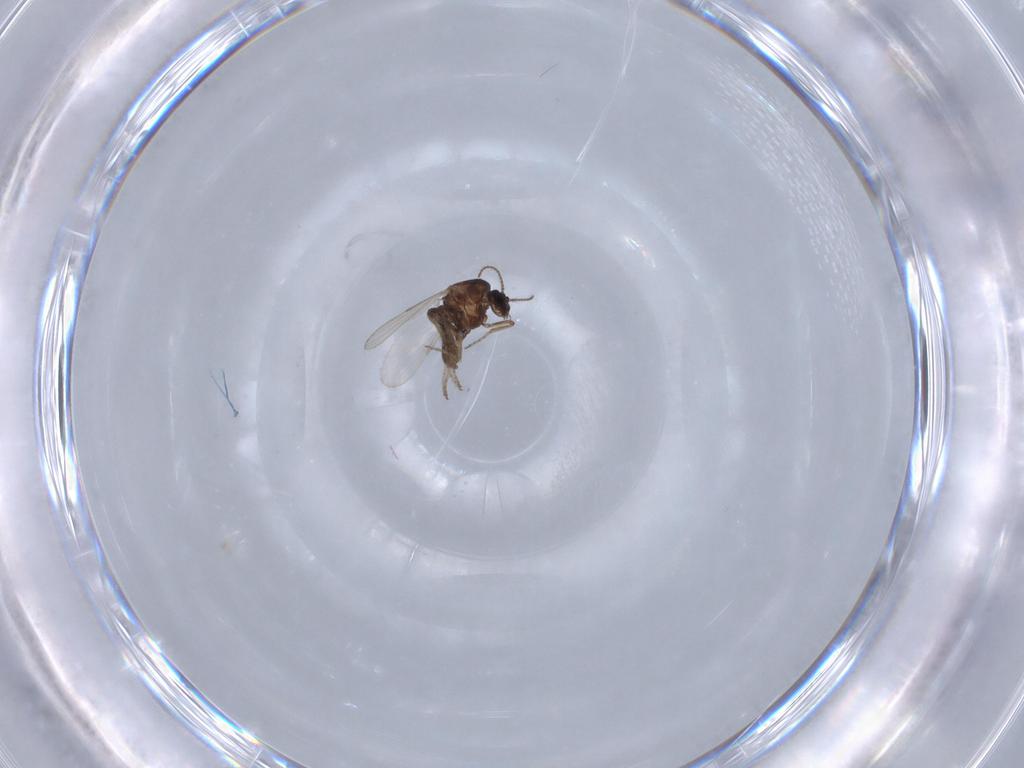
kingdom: Animalia
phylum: Arthropoda
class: Insecta
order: Diptera
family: Ceratopogonidae
